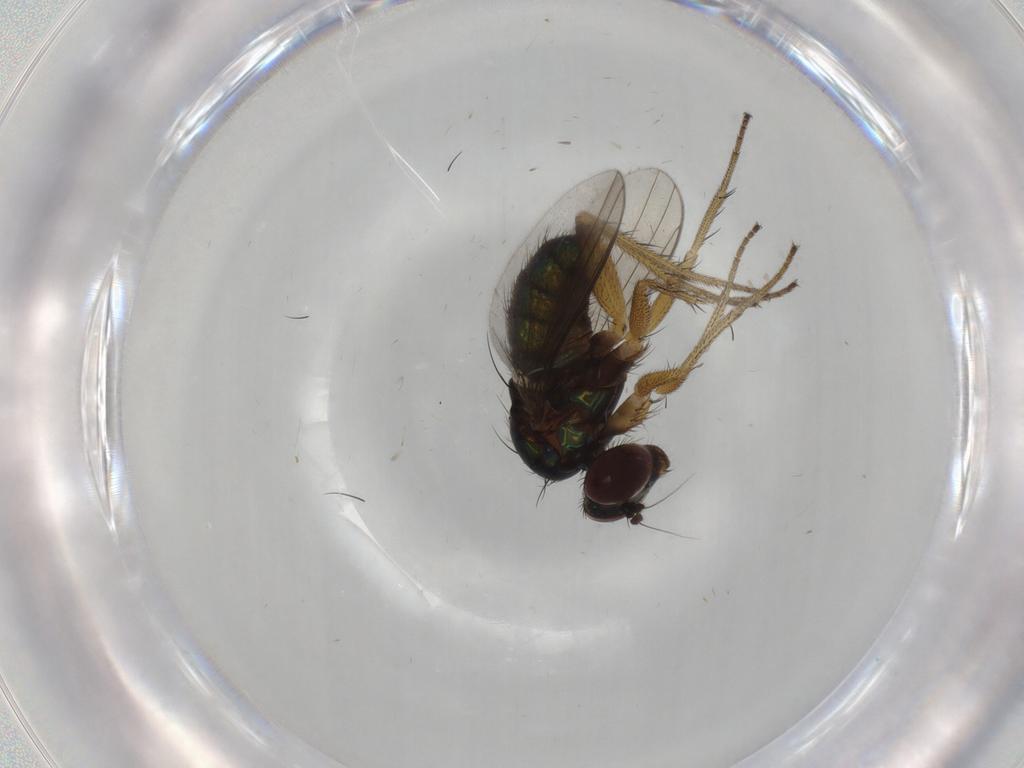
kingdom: Animalia
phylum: Arthropoda
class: Insecta
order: Diptera
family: Dolichopodidae
